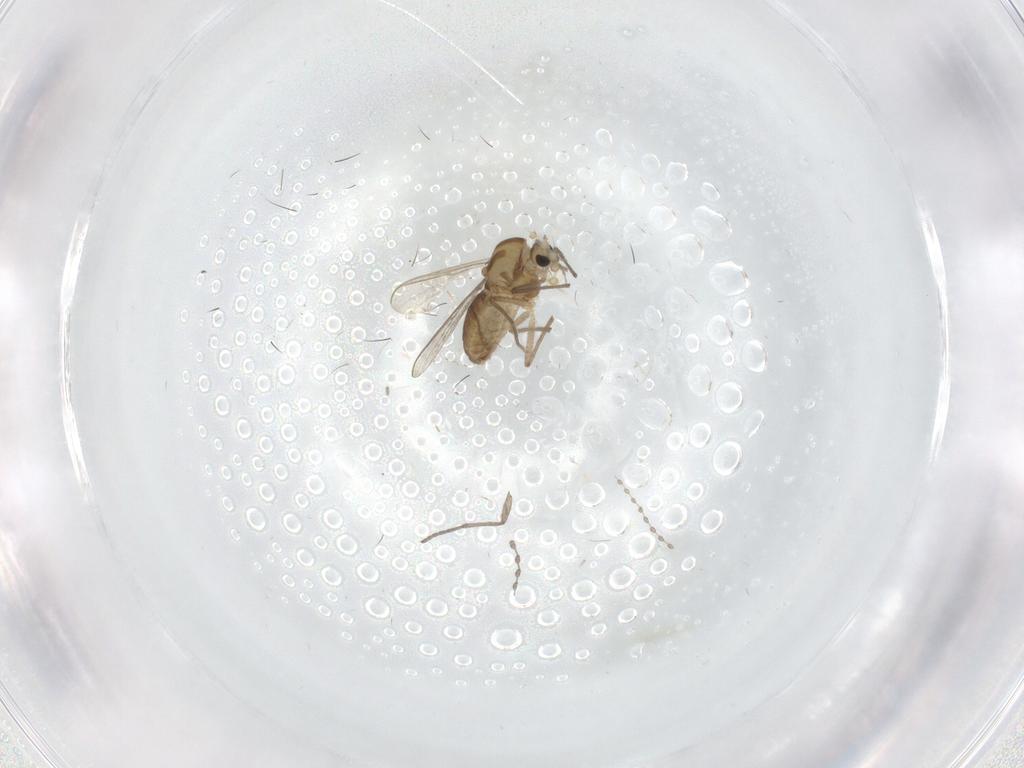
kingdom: Animalia
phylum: Arthropoda
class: Insecta
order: Diptera
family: Chironomidae
